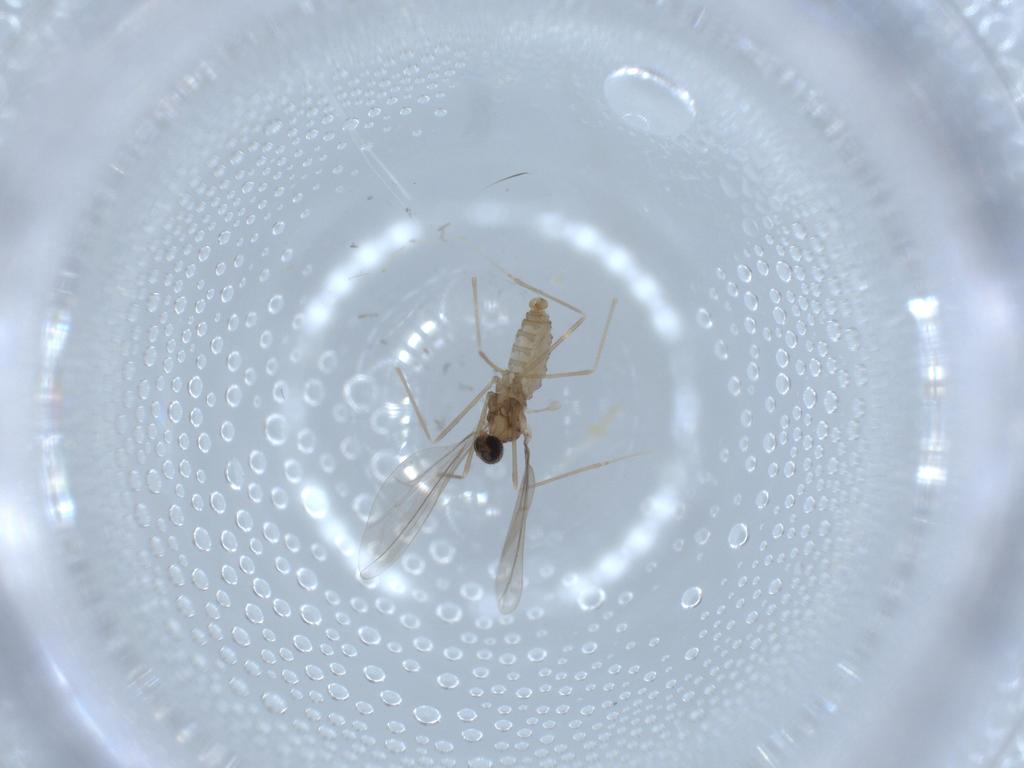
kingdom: Animalia
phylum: Arthropoda
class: Insecta
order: Diptera
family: Cecidomyiidae
